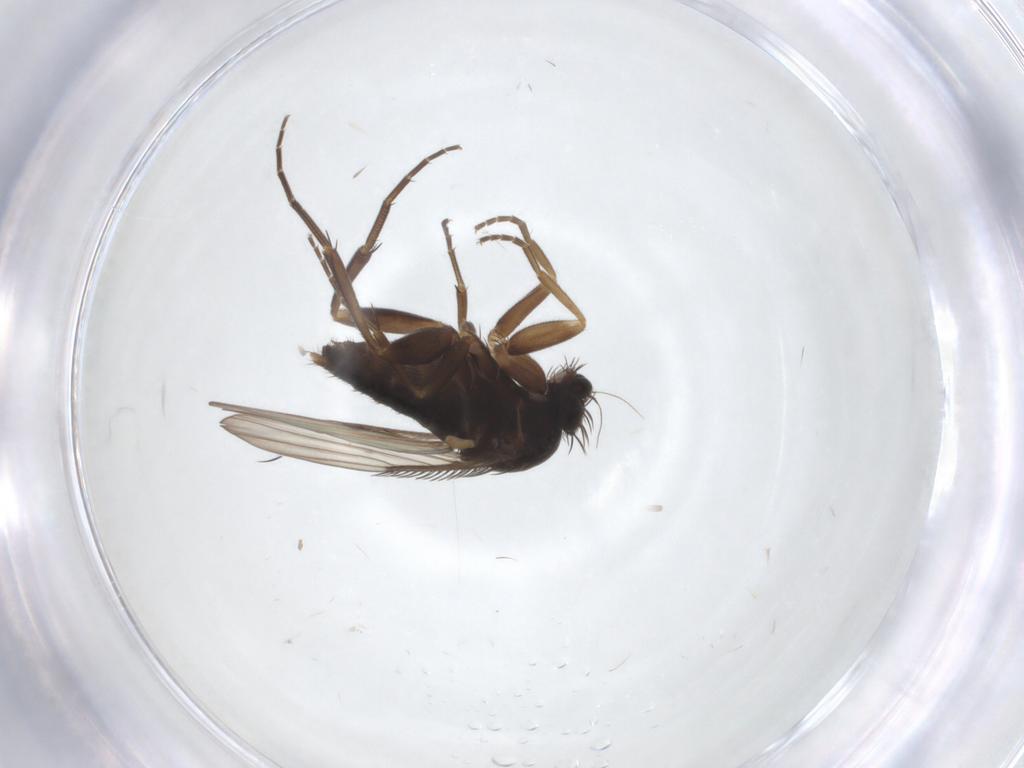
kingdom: Animalia
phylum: Arthropoda
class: Insecta
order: Diptera
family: Phoridae
